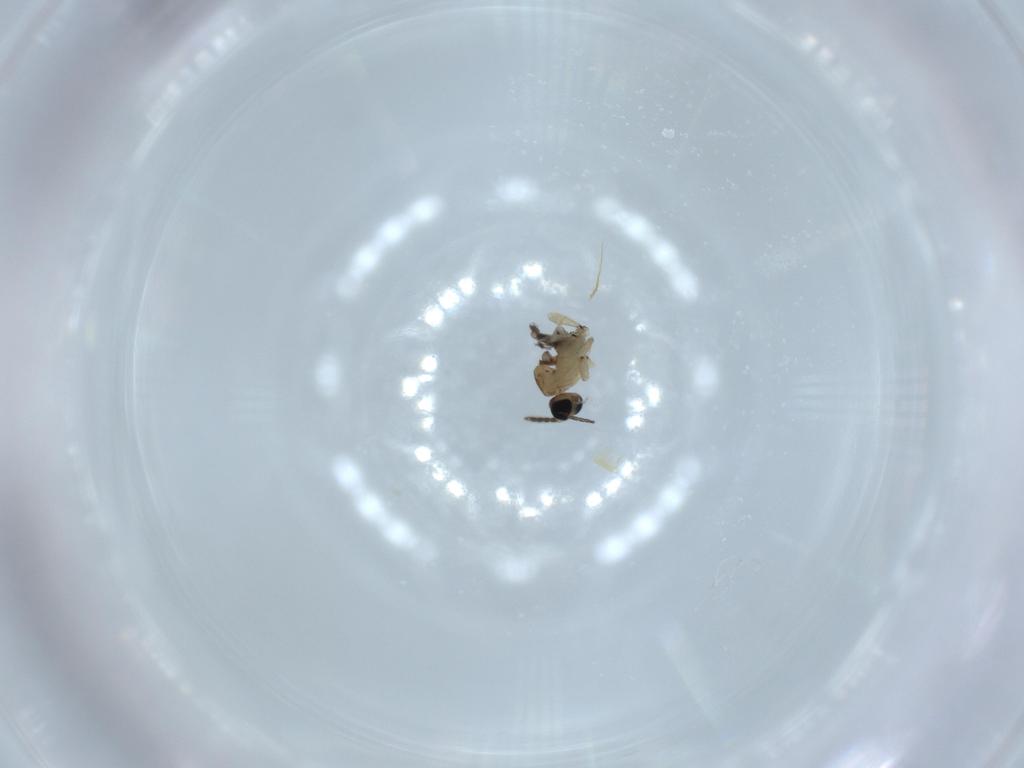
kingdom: Animalia
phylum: Arthropoda
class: Insecta
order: Diptera
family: Sciaridae
